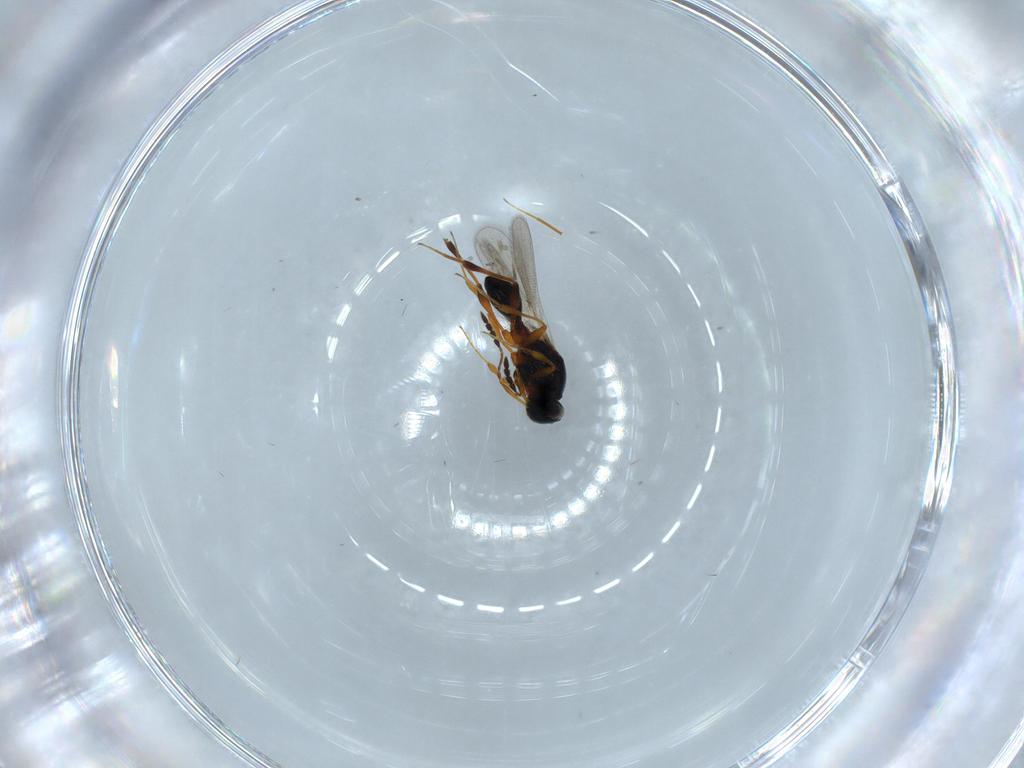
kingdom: Animalia
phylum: Arthropoda
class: Insecta
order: Hymenoptera
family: Platygastridae
